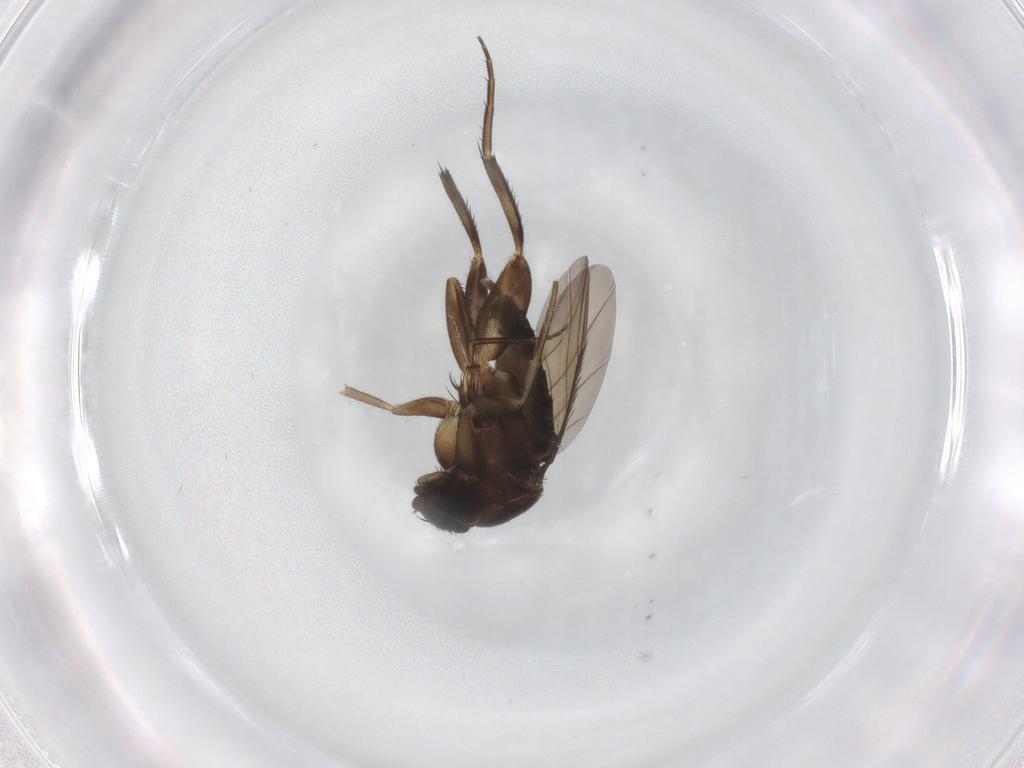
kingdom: Animalia
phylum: Arthropoda
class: Insecta
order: Diptera
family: Phoridae
